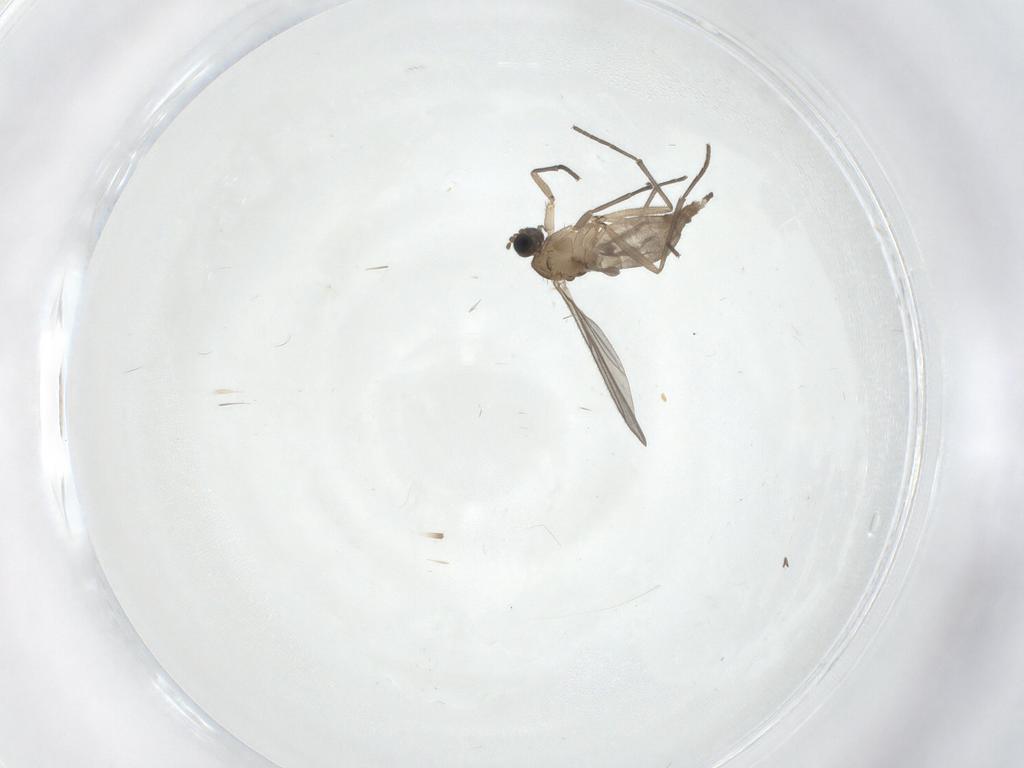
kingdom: Animalia
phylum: Arthropoda
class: Insecta
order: Diptera
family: Sciaridae
